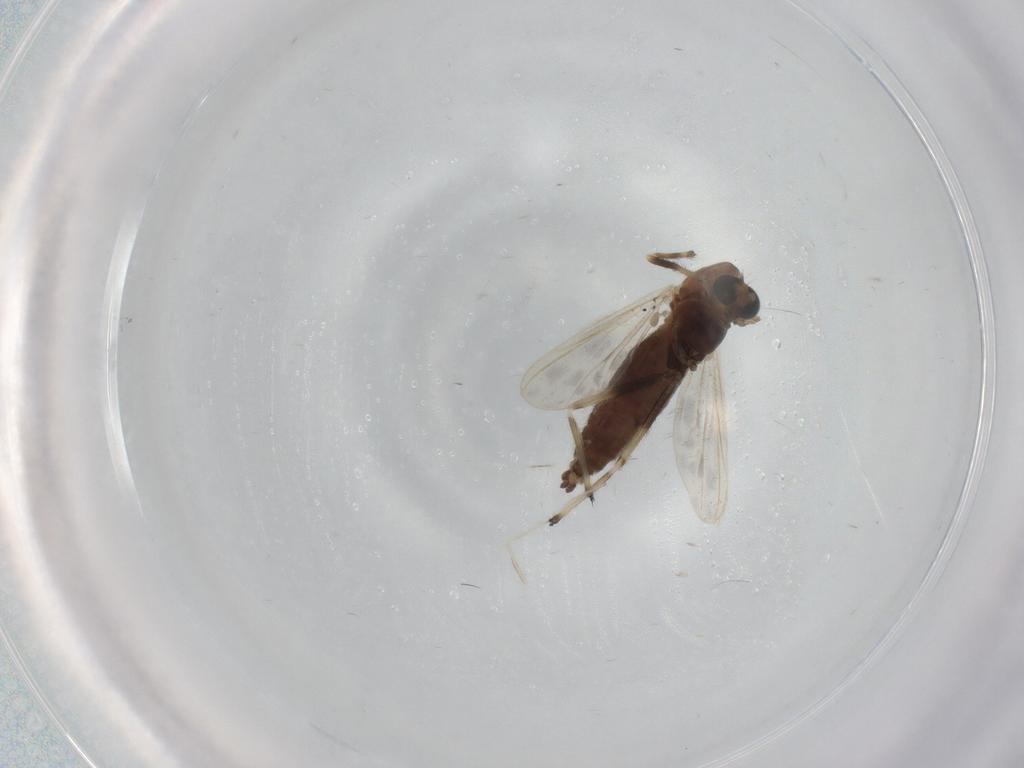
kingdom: Animalia
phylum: Arthropoda
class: Insecta
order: Diptera
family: Chironomidae
